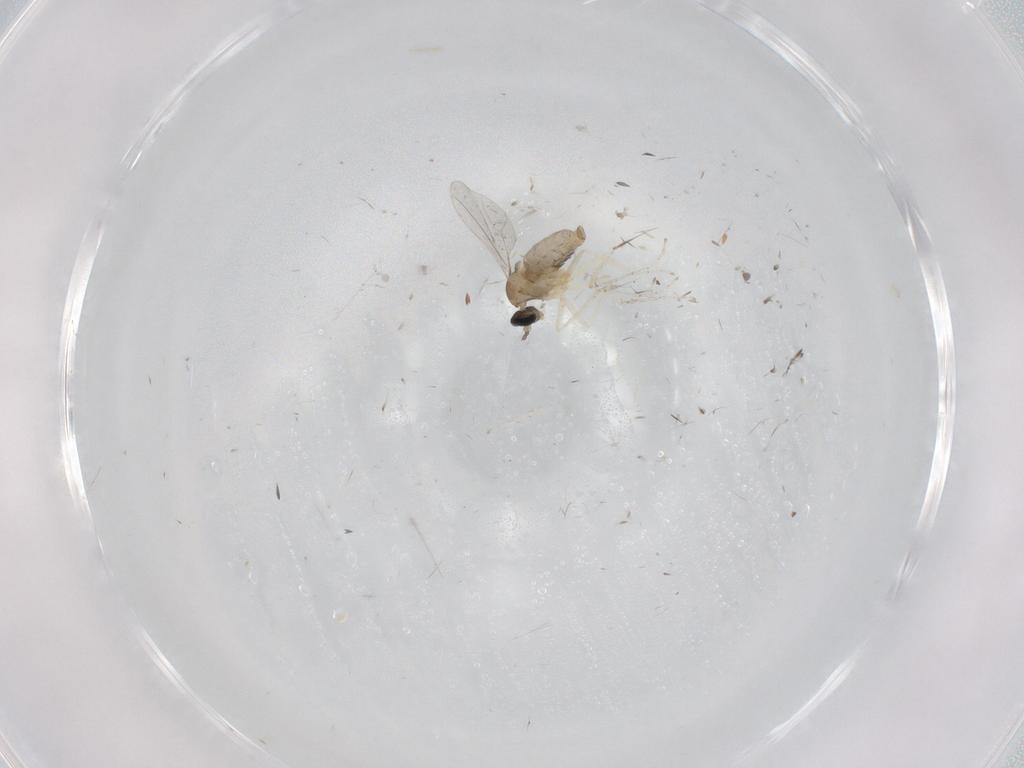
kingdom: Animalia
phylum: Arthropoda
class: Insecta
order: Diptera
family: Cecidomyiidae
